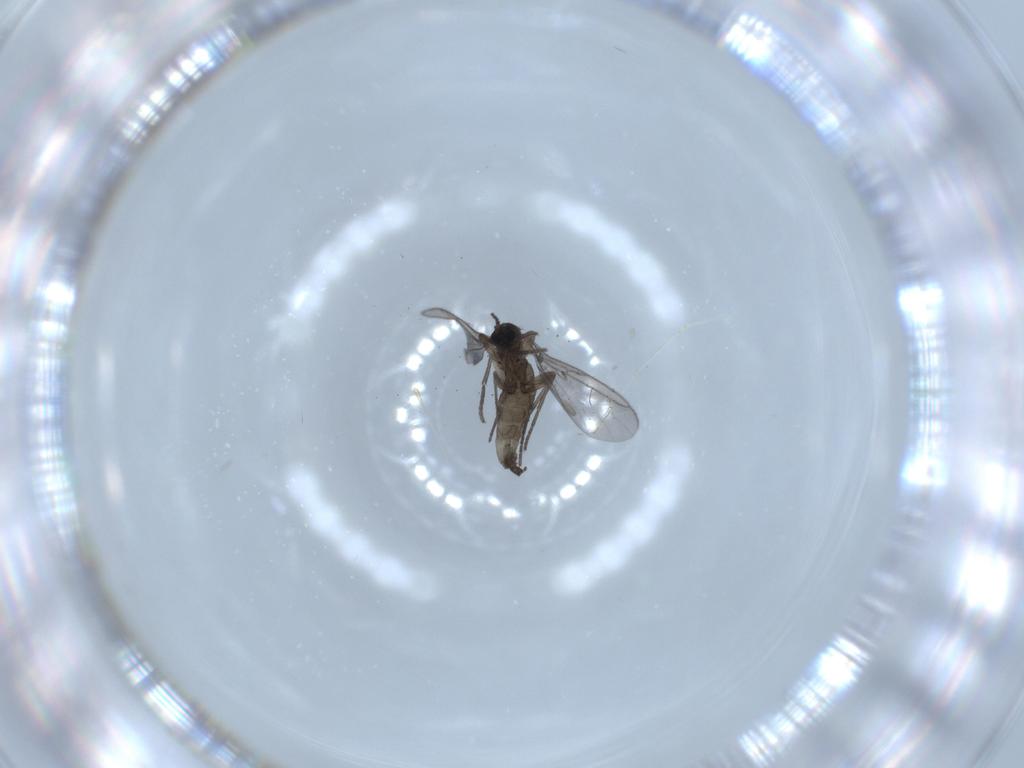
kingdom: Animalia
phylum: Arthropoda
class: Insecta
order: Diptera
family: Cecidomyiidae
